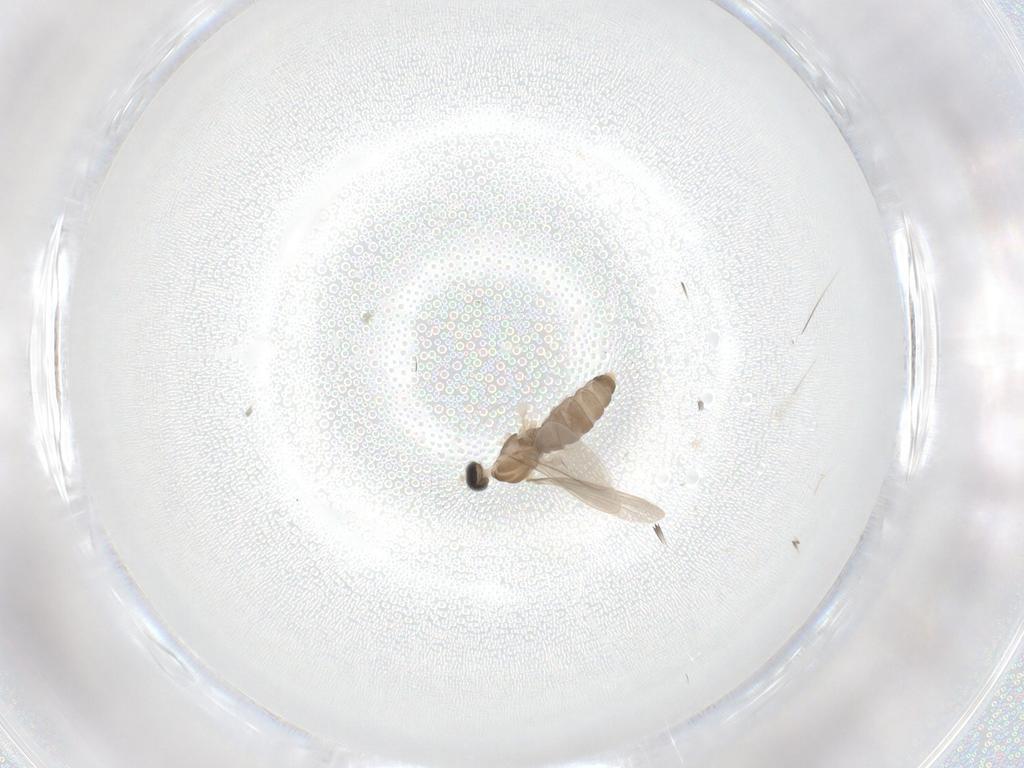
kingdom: Animalia
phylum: Arthropoda
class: Insecta
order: Diptera
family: Cecidomyiidae
